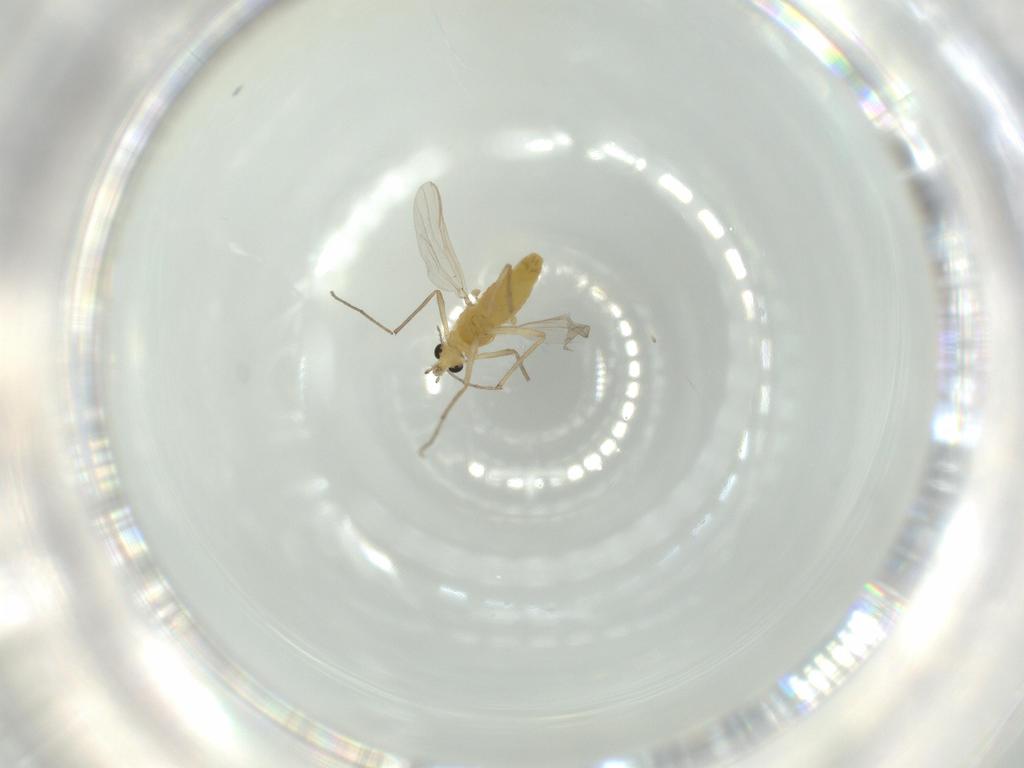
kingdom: Animalia
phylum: Arthropoda
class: Insecta
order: Diptera
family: Chironomidae
